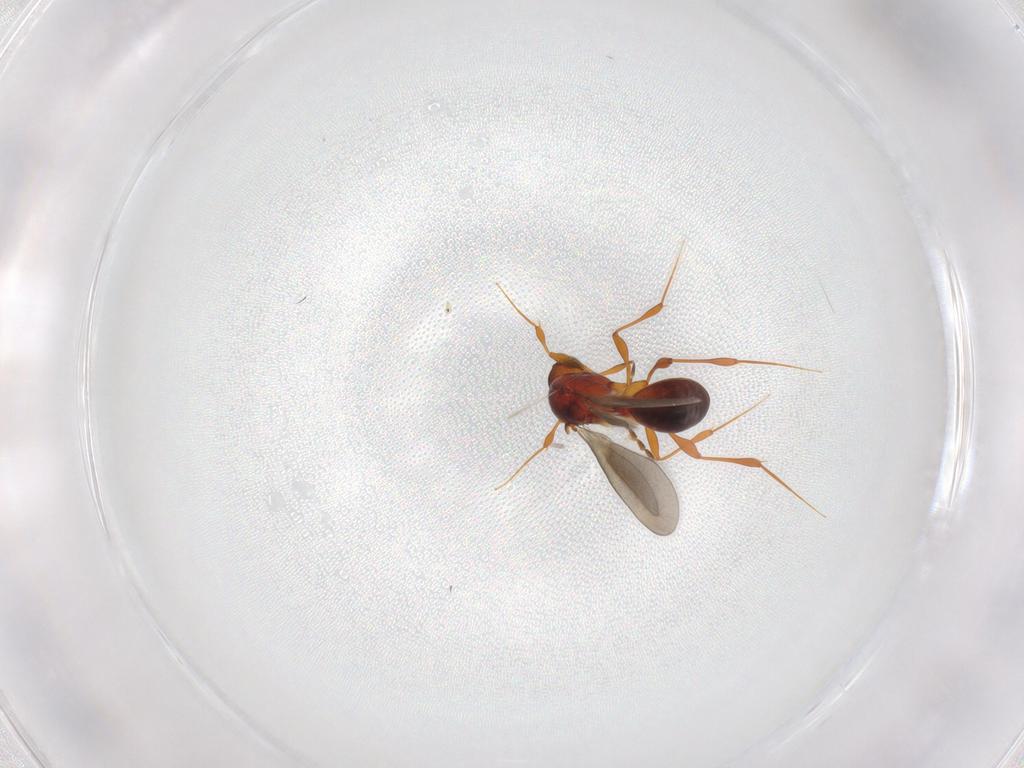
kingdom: Animalia
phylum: Arthropoda
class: Insecta
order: Hymenoptera
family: Platygastridae
